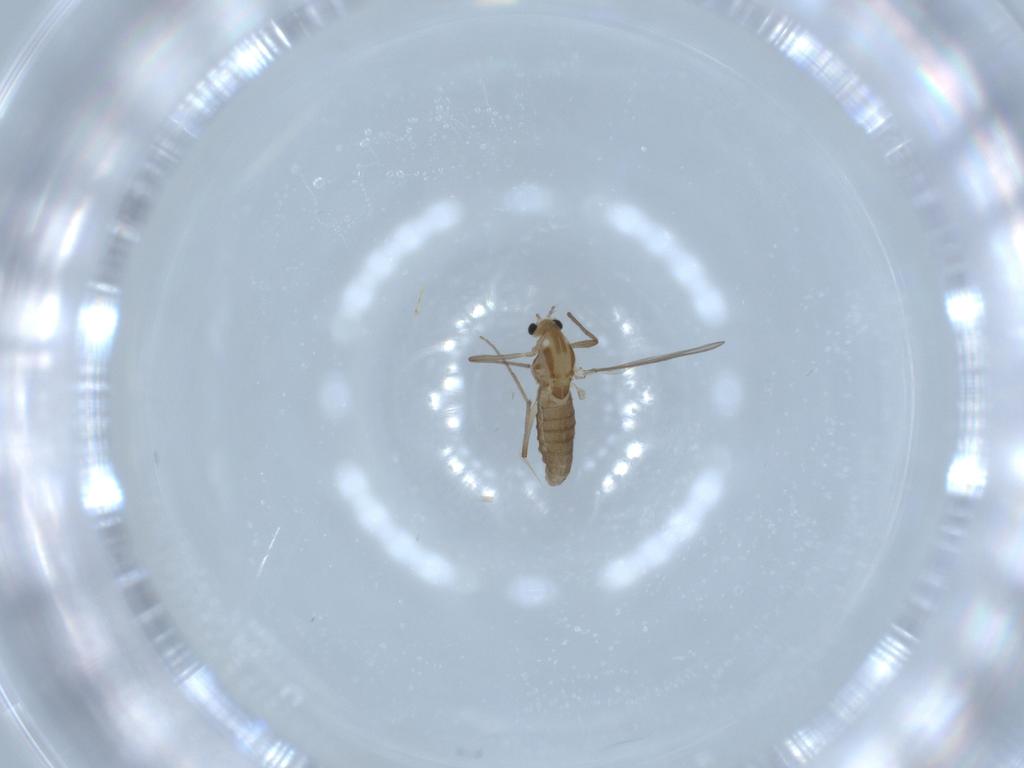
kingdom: Animalia
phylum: Arthropoda
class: Insecta
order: Diptera
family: Chironomidae
